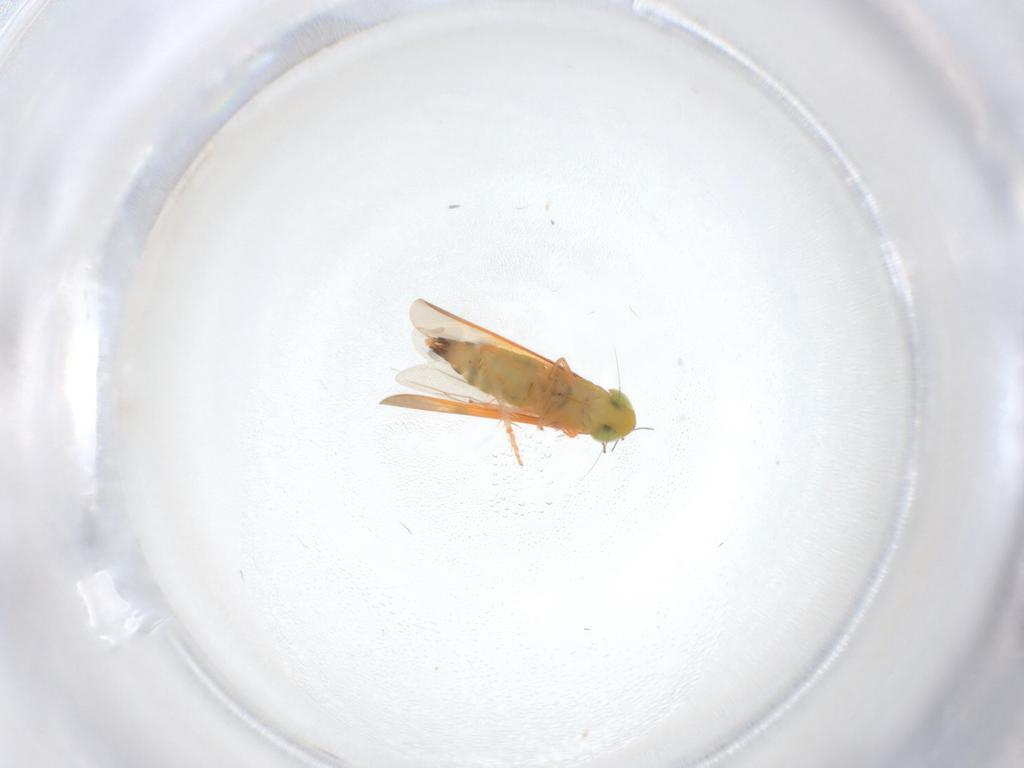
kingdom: Animalia
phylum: Arthropoda
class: Insecta
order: Hemiptera
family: Cicadellidae
